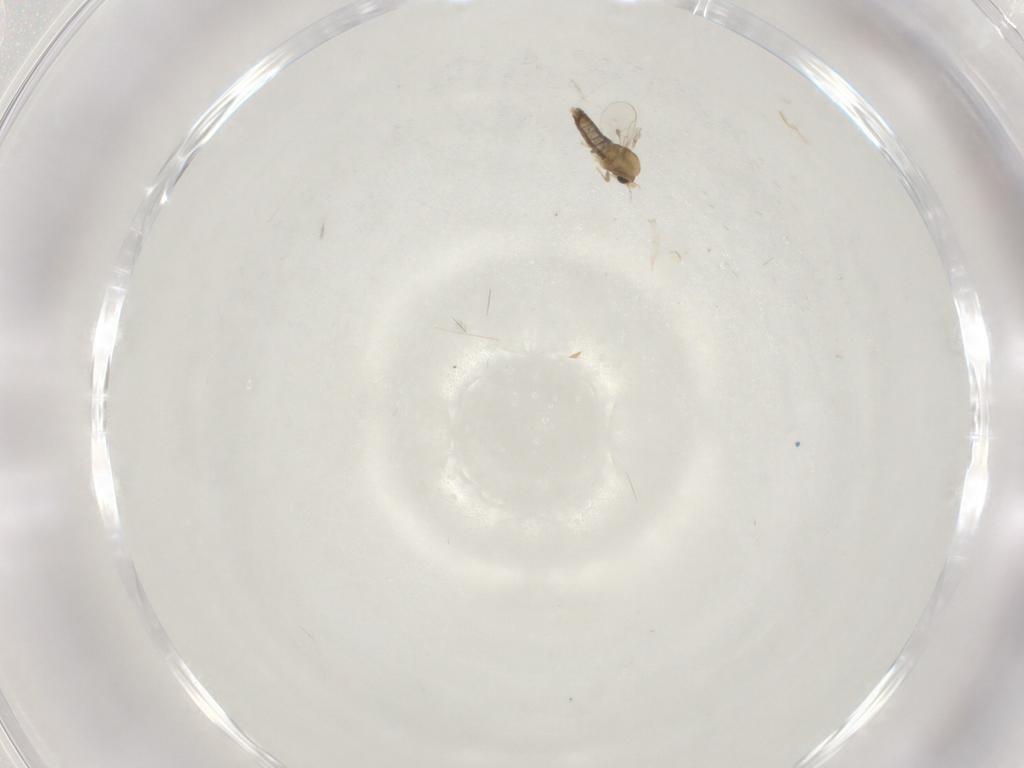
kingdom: Animalia
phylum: Arthropoda
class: Insecta
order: Diptera
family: Chironomidae
